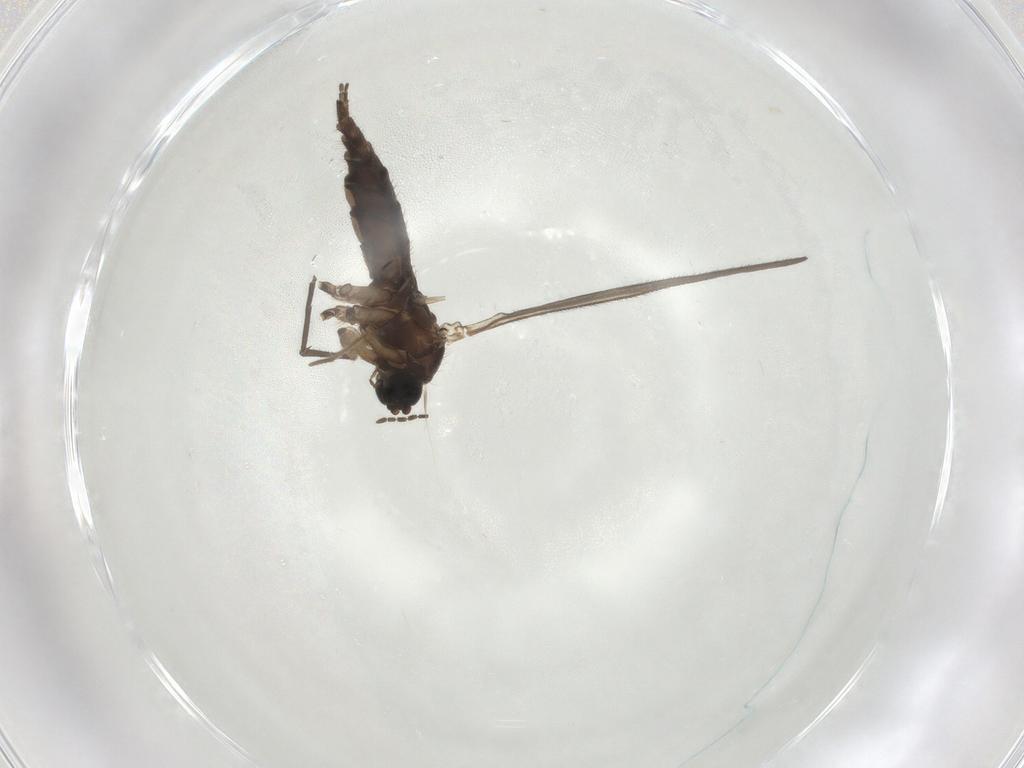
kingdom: Animalia
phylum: Arthropoda
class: Insecta
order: Diptera
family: Sciaridae
